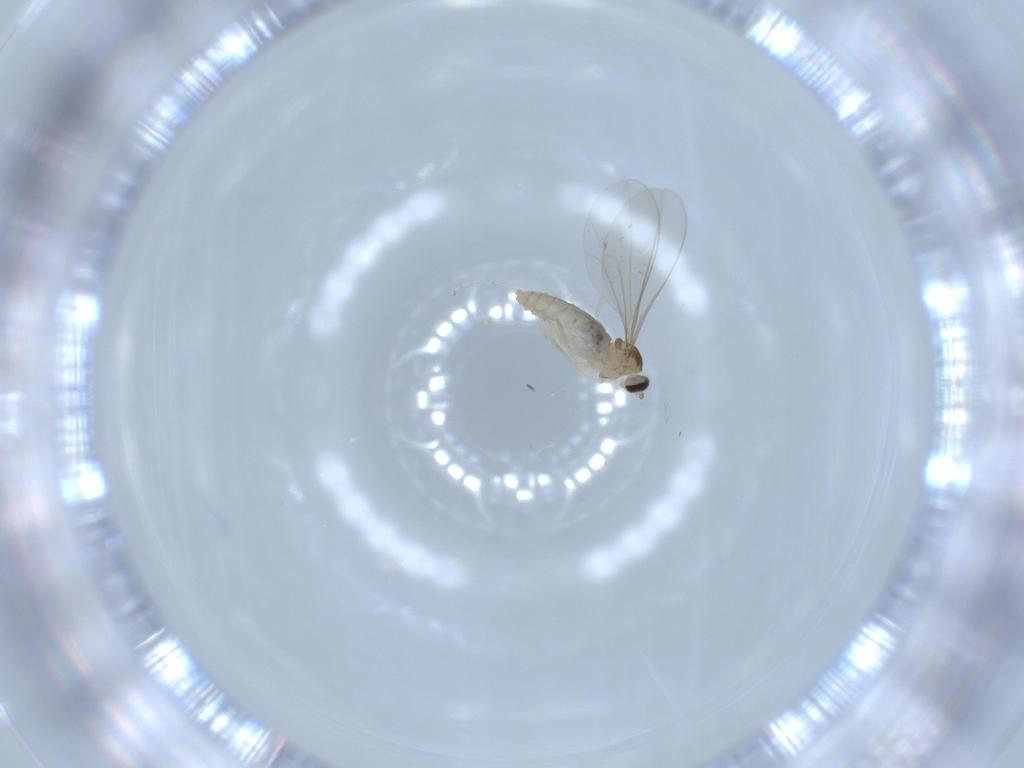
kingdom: Animalia
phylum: Arthropoda
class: Insecta
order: Diptera
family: Cecidomyiidae
